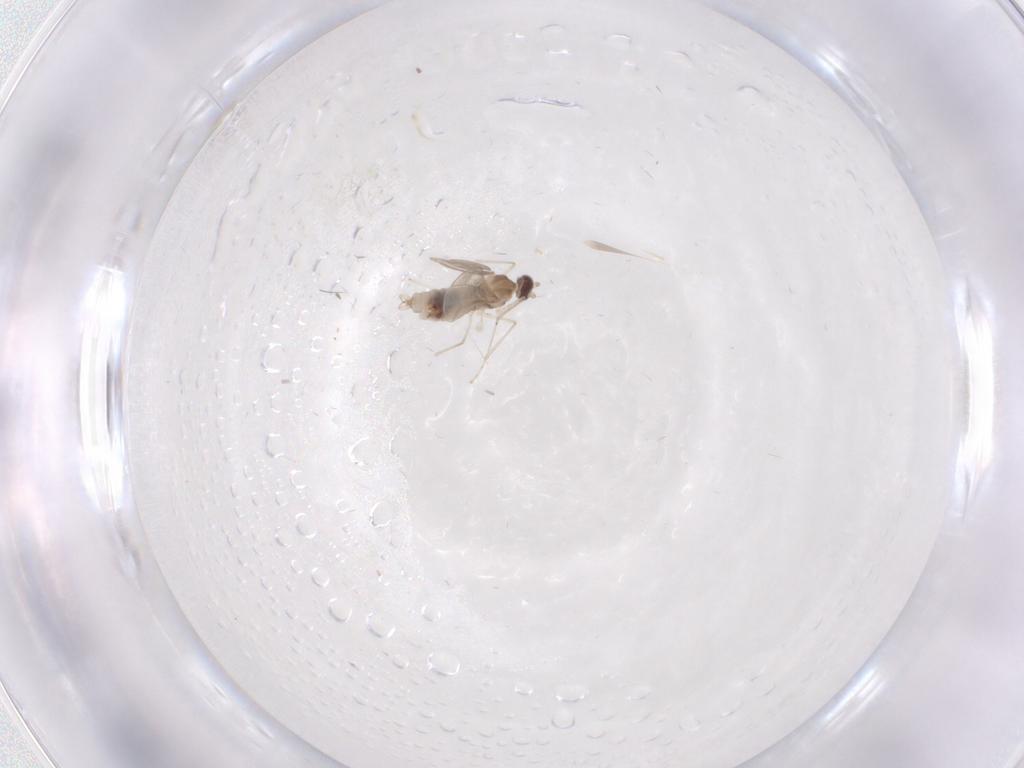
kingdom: Animalia
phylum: Arthropoda
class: Insecta
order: Diptera
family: Cecidomyiidae
